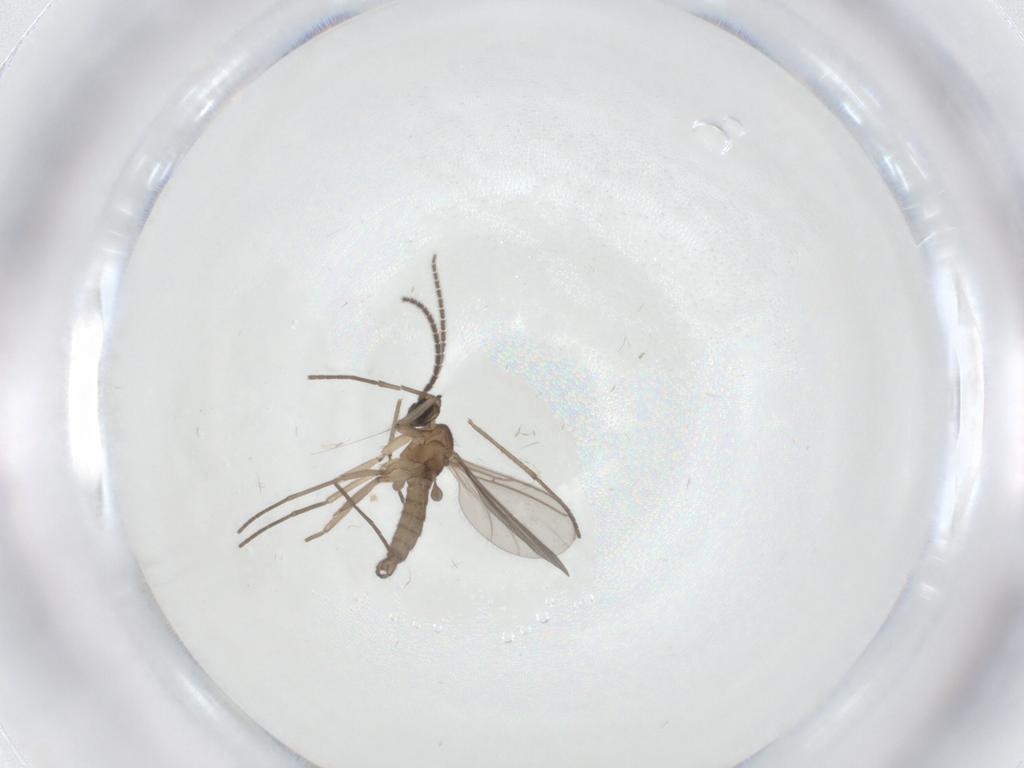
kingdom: Animalia
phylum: Arthropoda
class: Insecta
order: Diptera
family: Sciaridae
